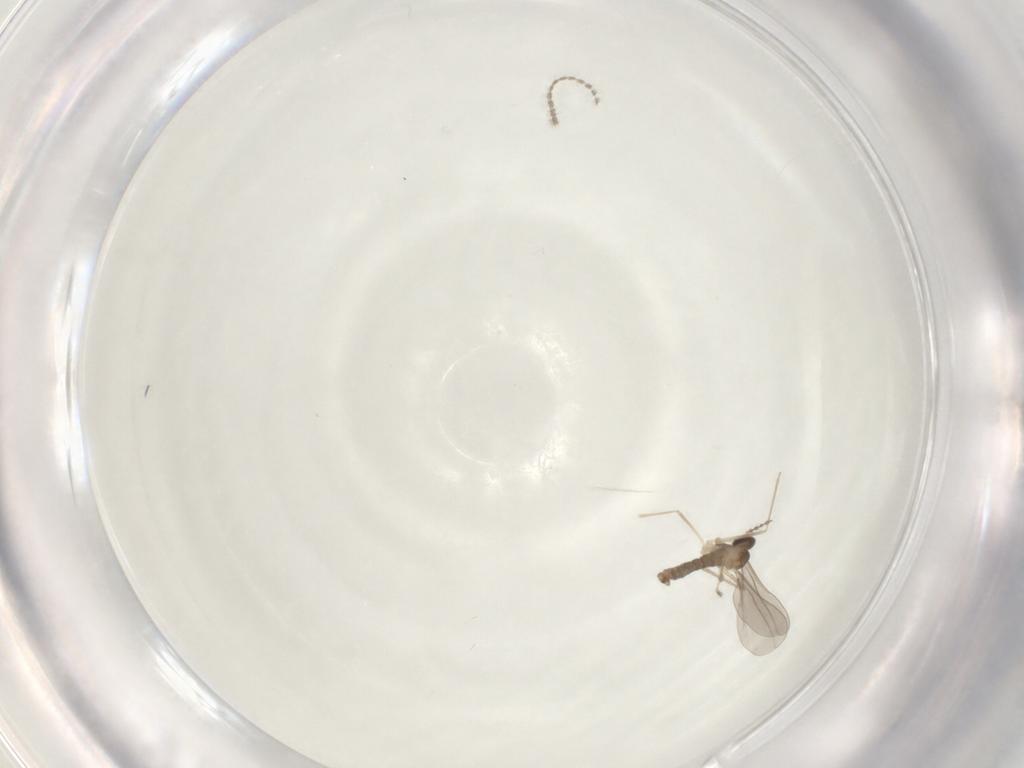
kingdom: Animalia
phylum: Arthropoda
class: Insecta
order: Diptera
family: Cecidomyiidae
